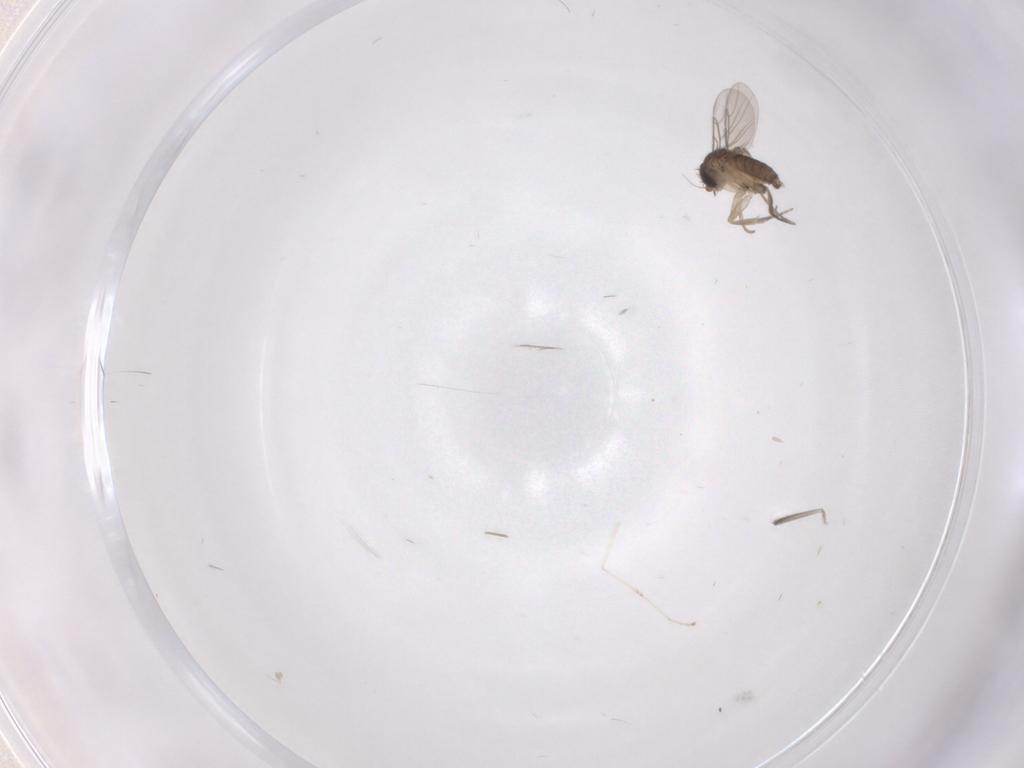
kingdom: Animalia
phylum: Arthropoda
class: Insecta
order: Diptera
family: Phoridae
